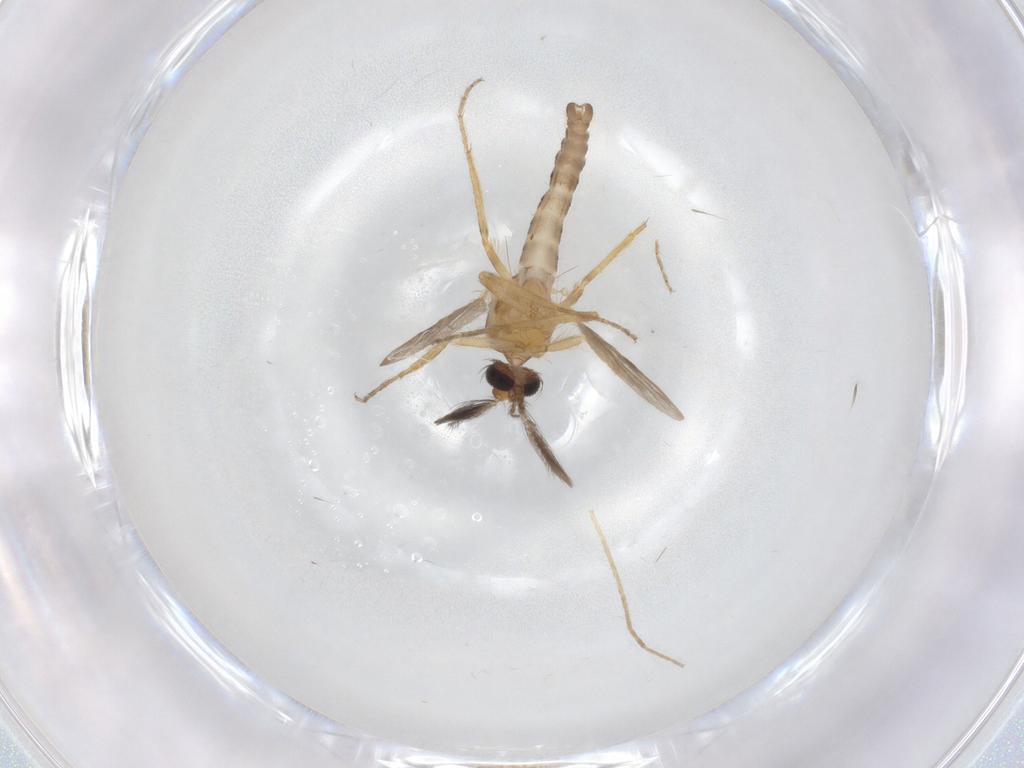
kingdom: Animalia
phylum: Arthropoda
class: Insecta
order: Diptera
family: Ceratopogonidae
